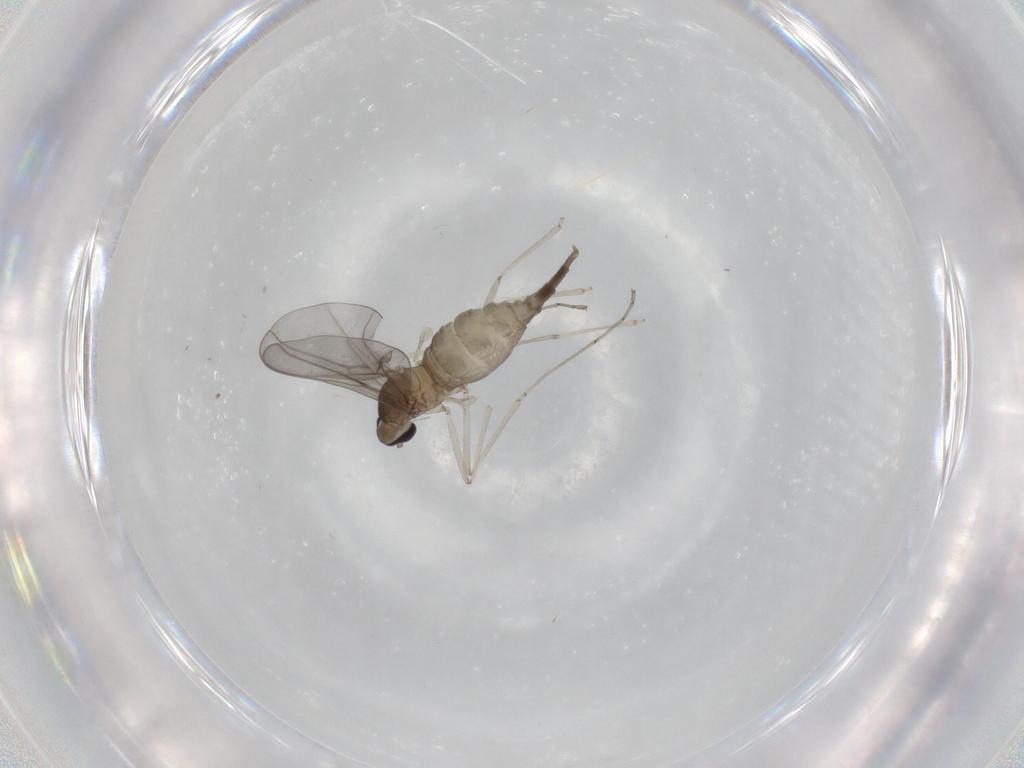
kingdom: Animalia
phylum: Arthropoda
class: Insecta
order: Diptera
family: Cecidomyiidae
